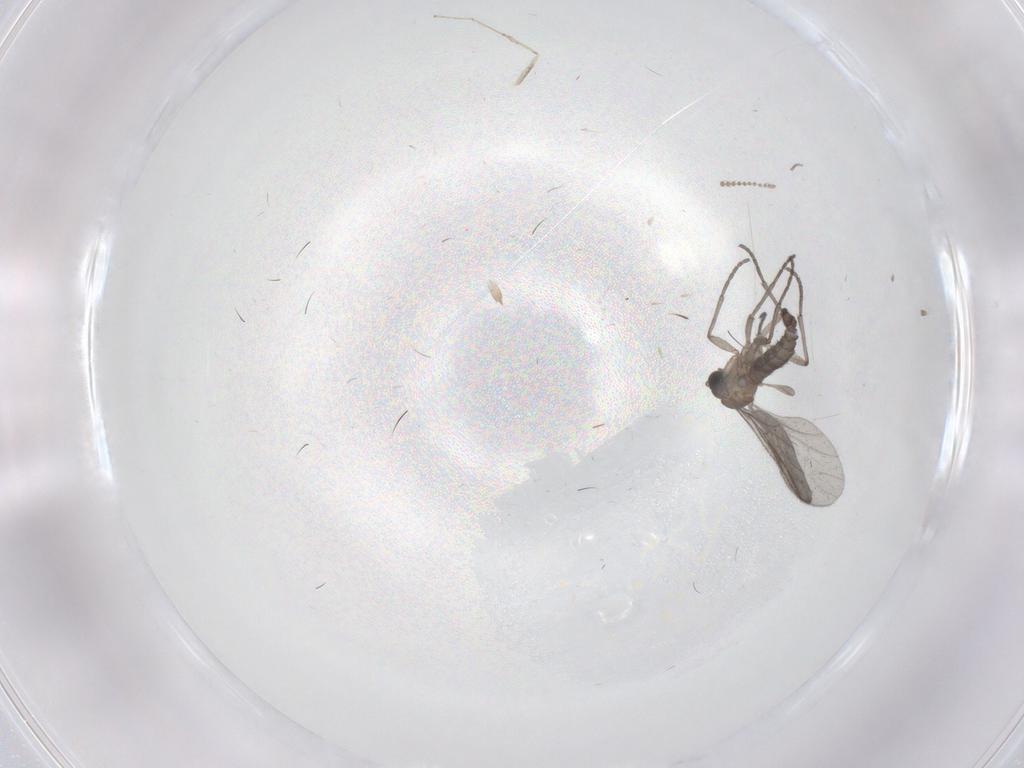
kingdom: Animalia
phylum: Arthropoda
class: Insecta
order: Diptera
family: Sciaridae
